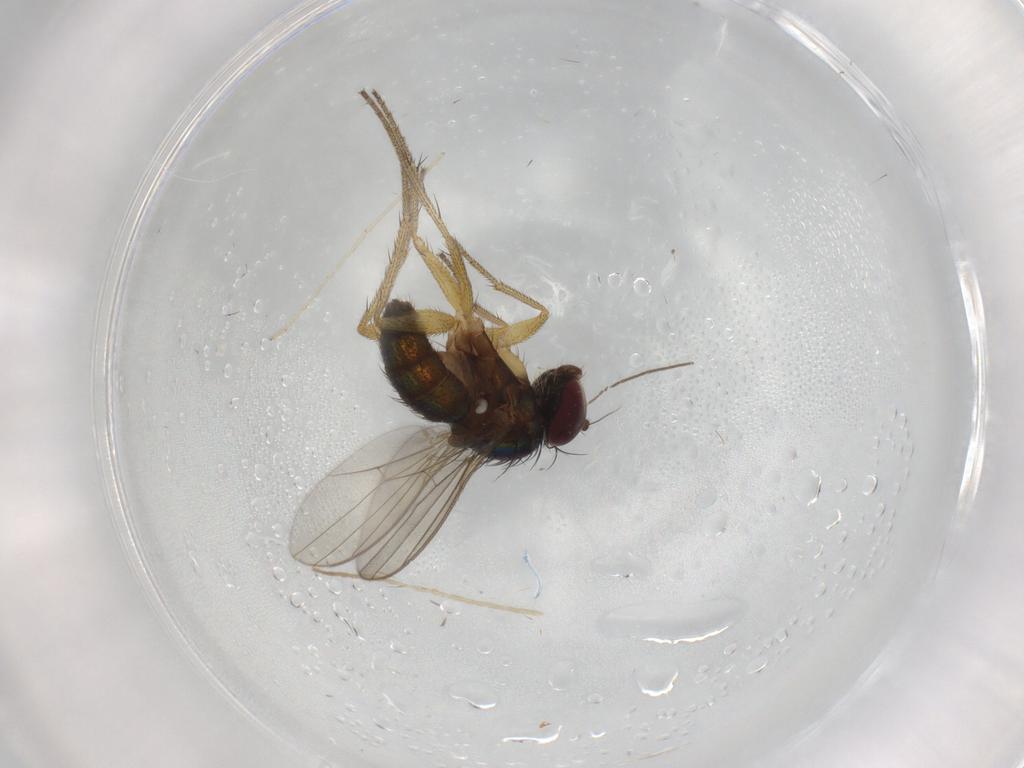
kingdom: Animalia
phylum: Arthropoda
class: Insecta
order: Diptera
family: Dolichopodidae
